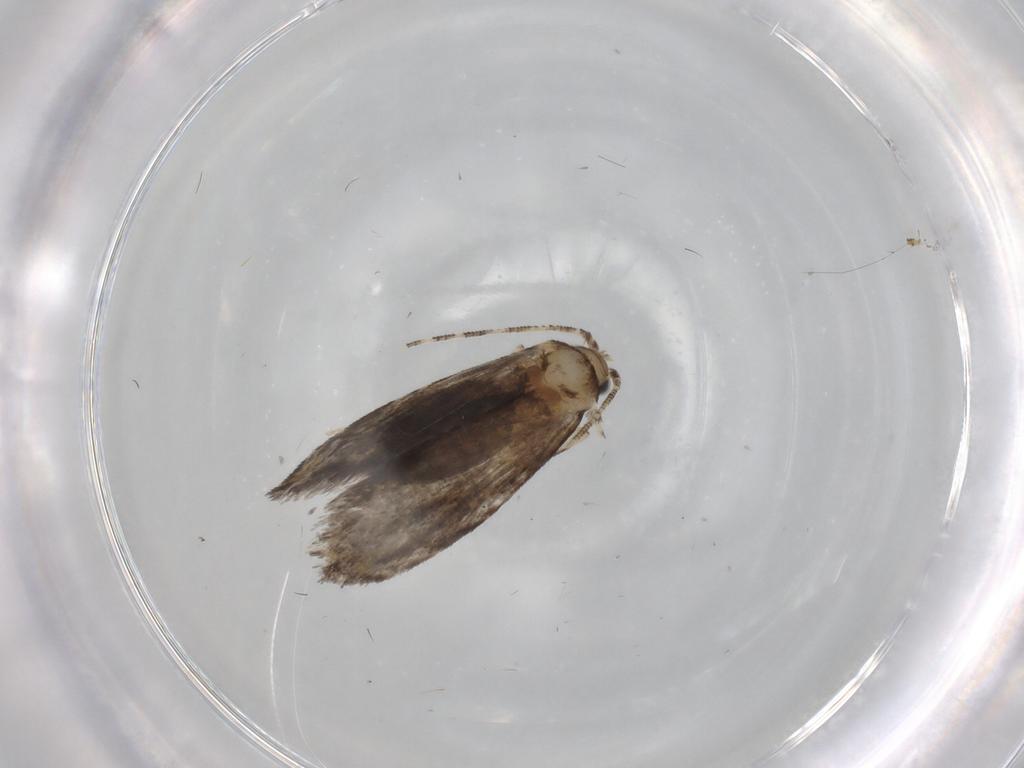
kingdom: Animalia
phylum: Arthropoda
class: Insecta
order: Lepidoptera
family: Tineidae
